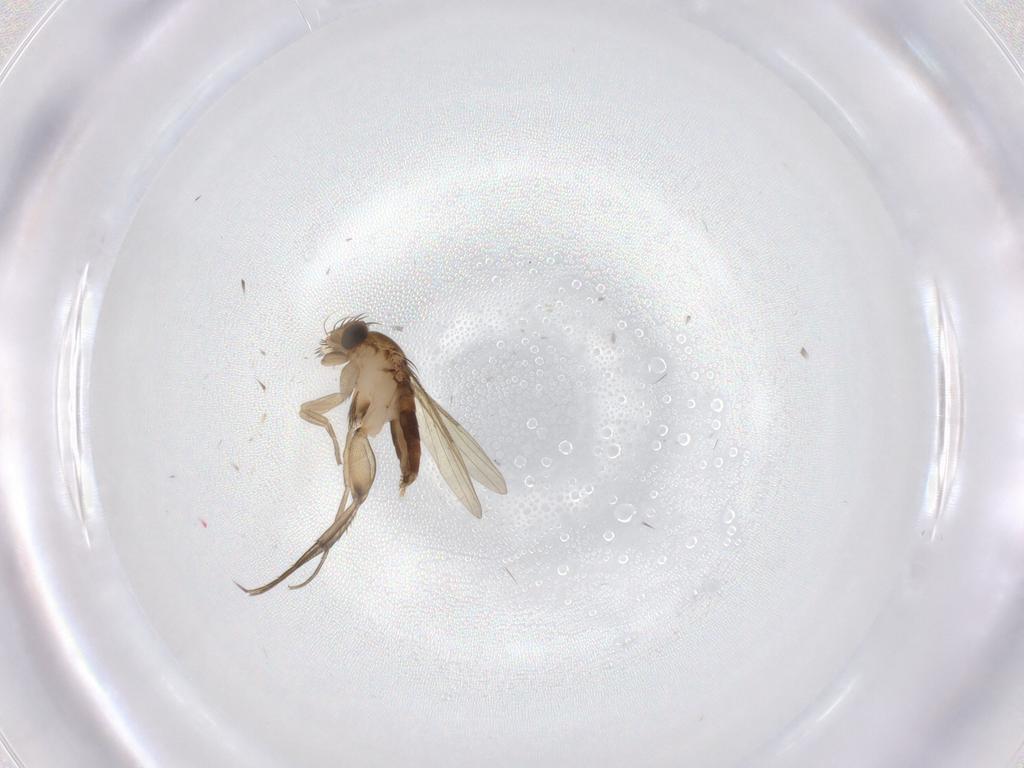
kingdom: Animalia
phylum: Arthropoda
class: Insecta
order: Diptera
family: Phoridae
